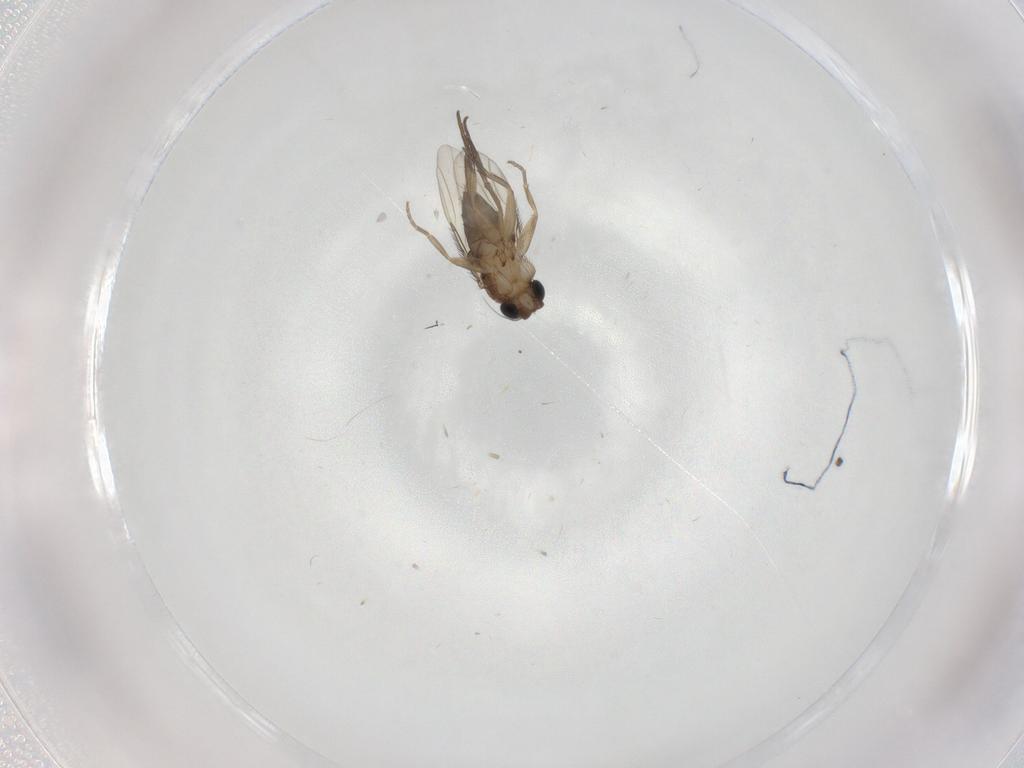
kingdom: Animalia
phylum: Arthropoda
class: Insecta
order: Diptera
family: Phoridae
